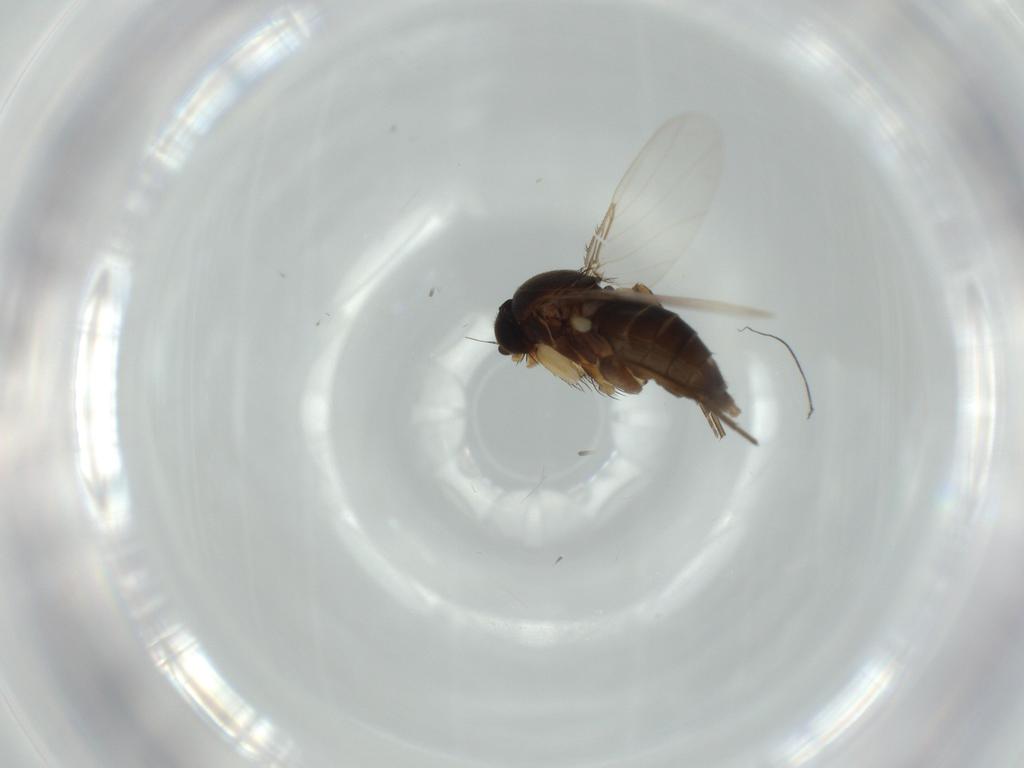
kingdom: Animalia
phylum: Arthropoda
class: Insecta
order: Diptera
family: Phoridae
